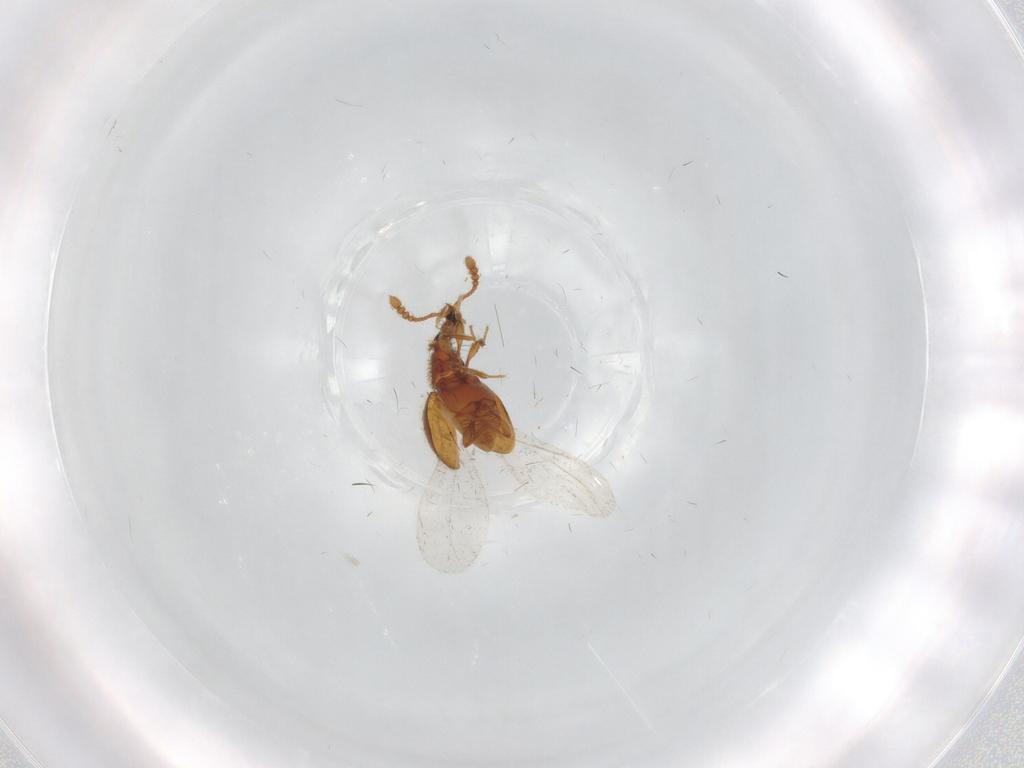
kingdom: Animalia
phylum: Arthropoda
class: Insecta
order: Coleoptera
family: Staphylinidae
